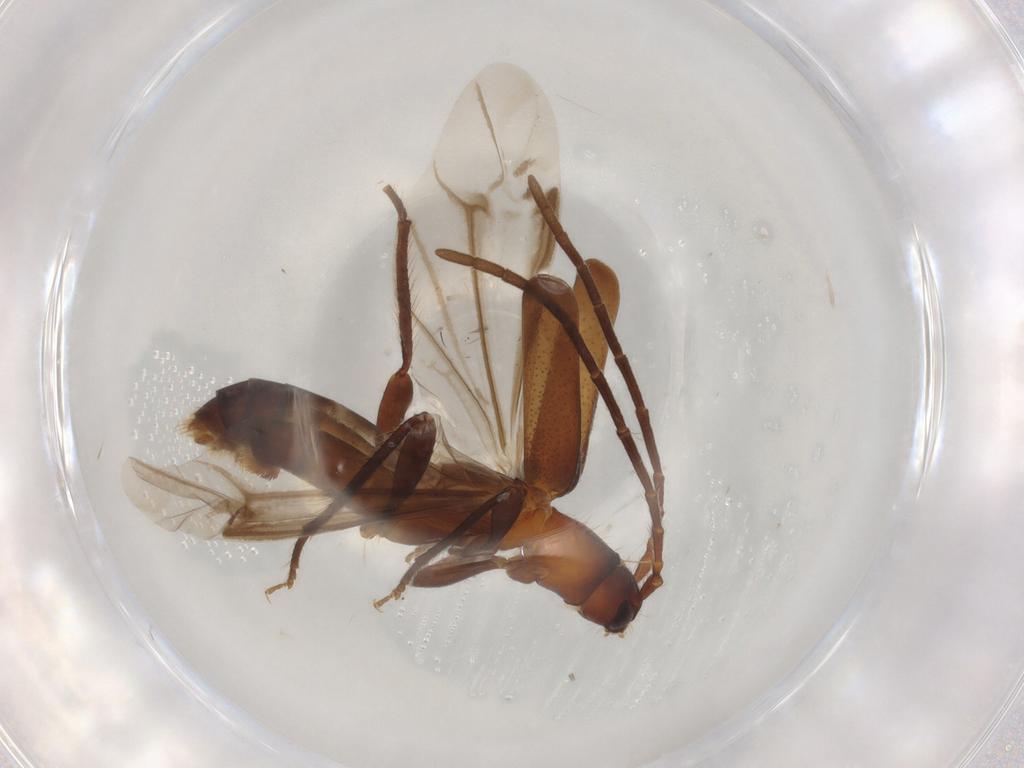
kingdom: Animalia
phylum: Arthropoda
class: Insecta
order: Coleoptera
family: Cerambycidae
